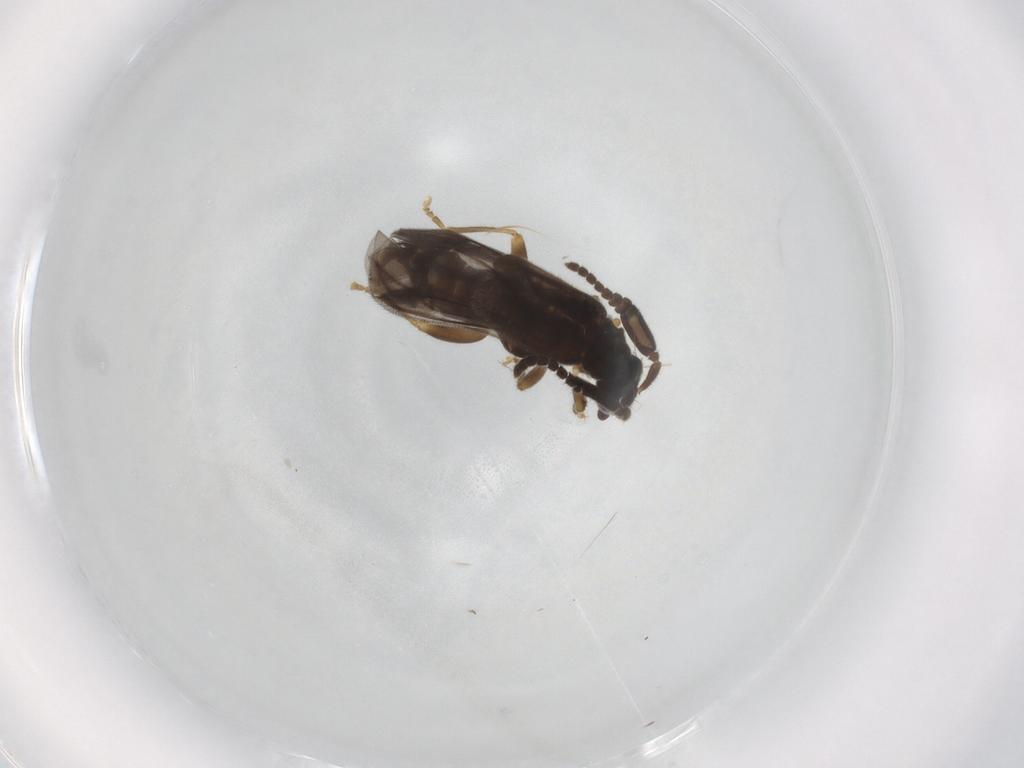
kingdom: Animalia
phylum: Arthropoda
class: Insecta
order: Coleoptera
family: Cantharidae
